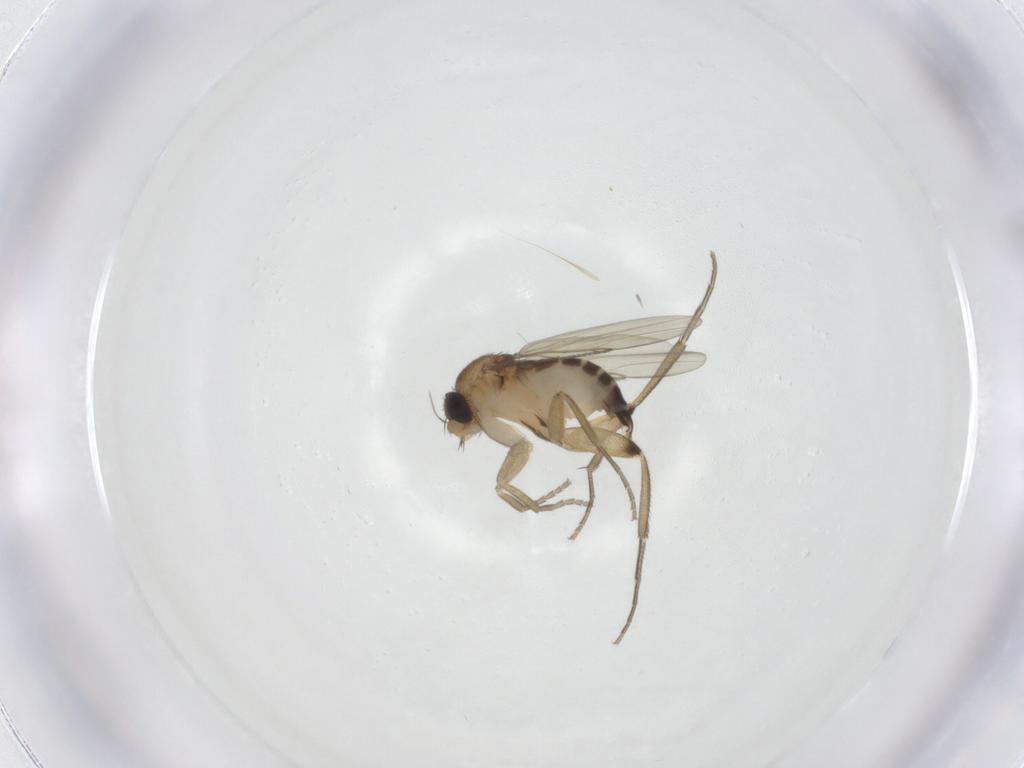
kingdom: Animalia
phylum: Arthropoda
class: Insecta
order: Diptera
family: Phoridae
